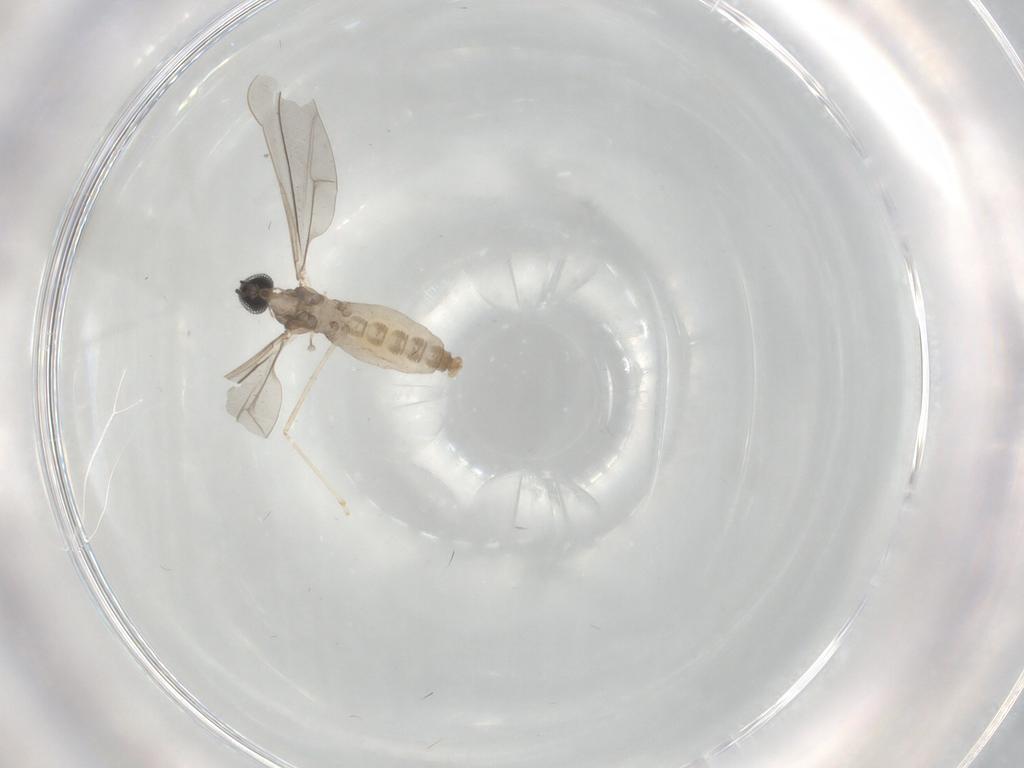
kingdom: Animalia
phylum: Arthropoda
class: Insecta
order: Diptera
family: Cecidomyiidae
